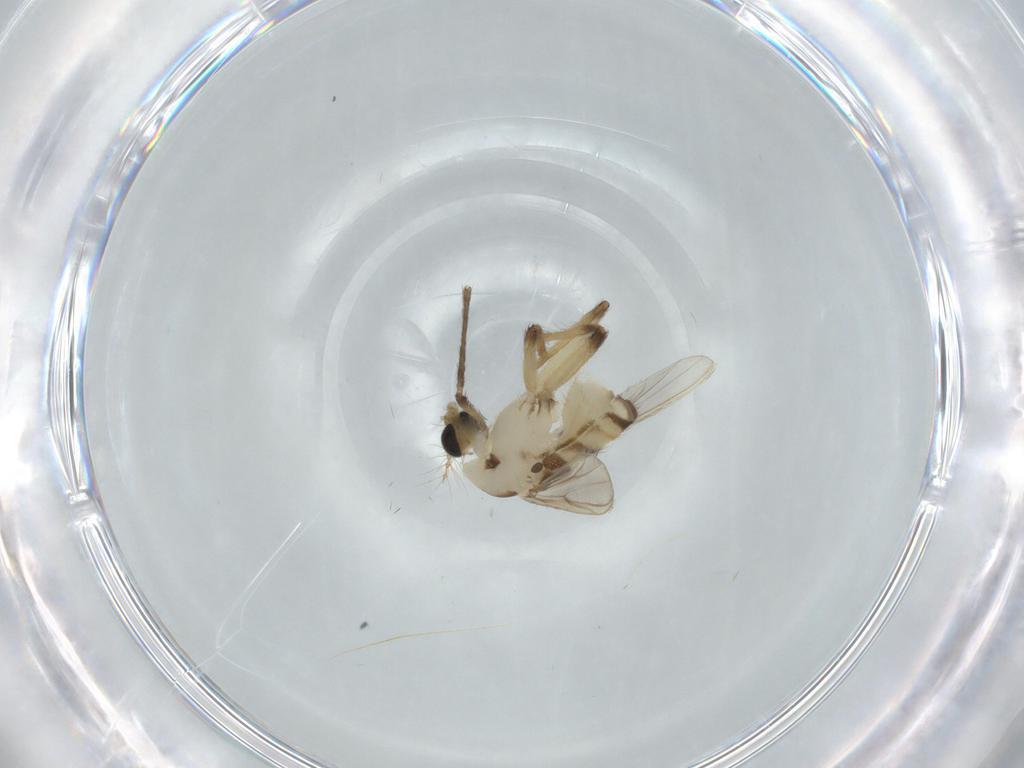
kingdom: Animalia
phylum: Arthropoda
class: Insecta
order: Diptera
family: Chironomidae
